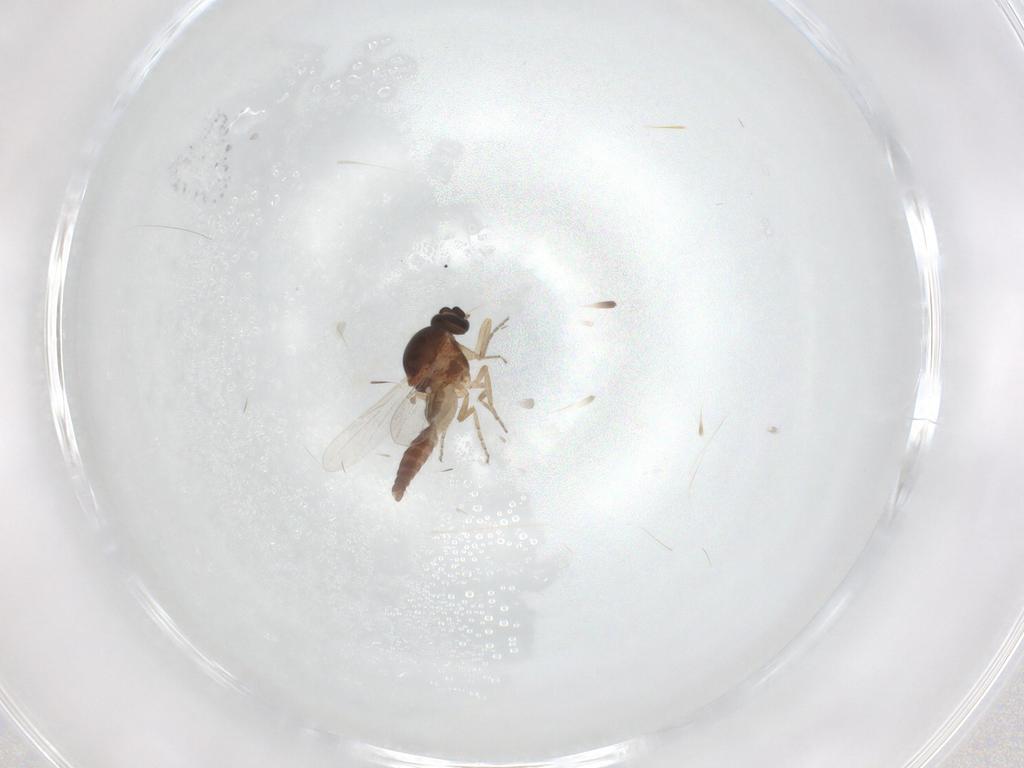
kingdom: Animalia
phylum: Arthropoda
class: Insecta
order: Diptera
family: Ceratopogonidae
